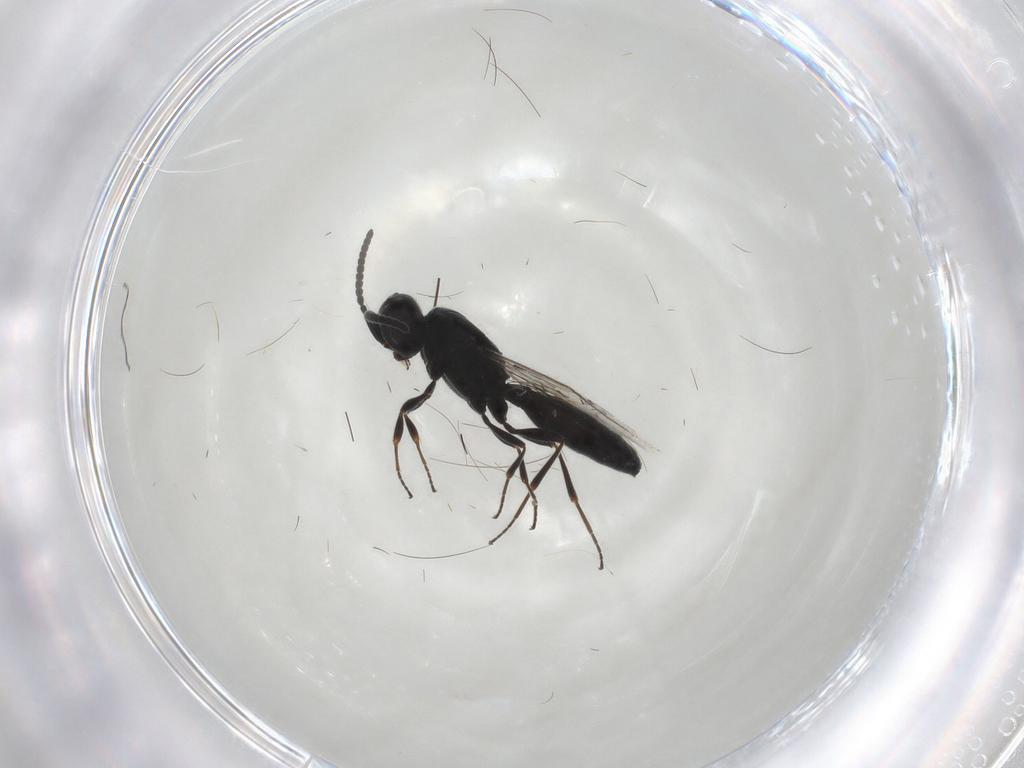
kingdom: Animalia
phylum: Arthropoda
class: Insecta
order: Hymenoptera
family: Scelionidae
